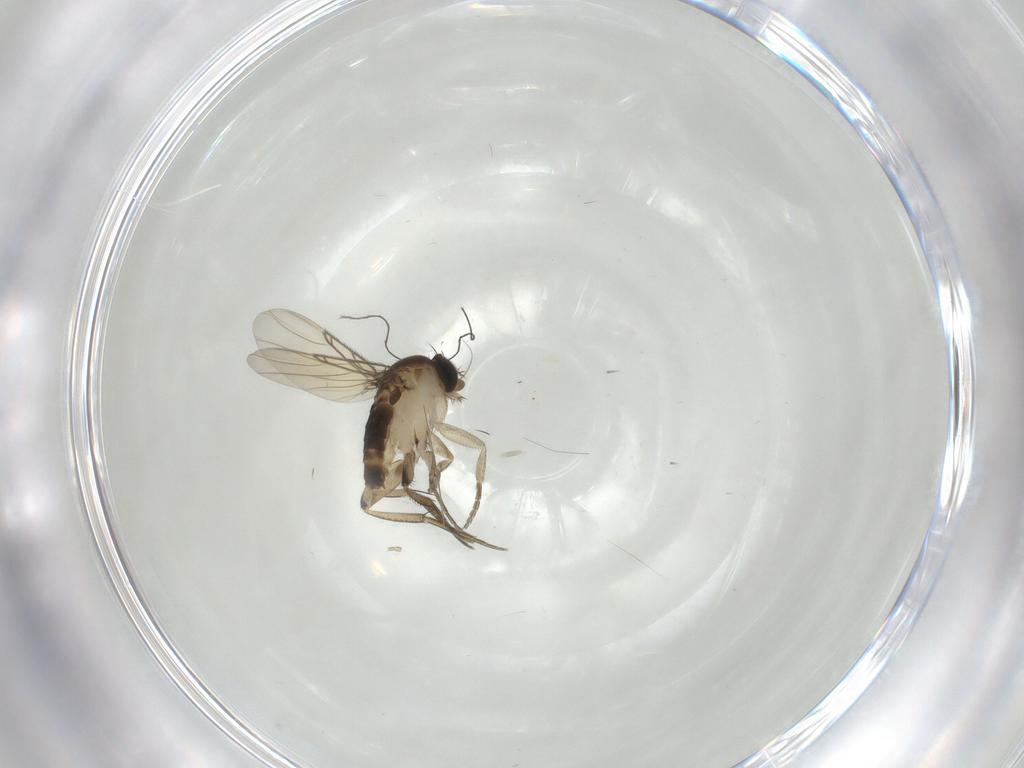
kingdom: Animalia
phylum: Arthropoda
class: Insecta
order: Diptera
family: Phoridae
